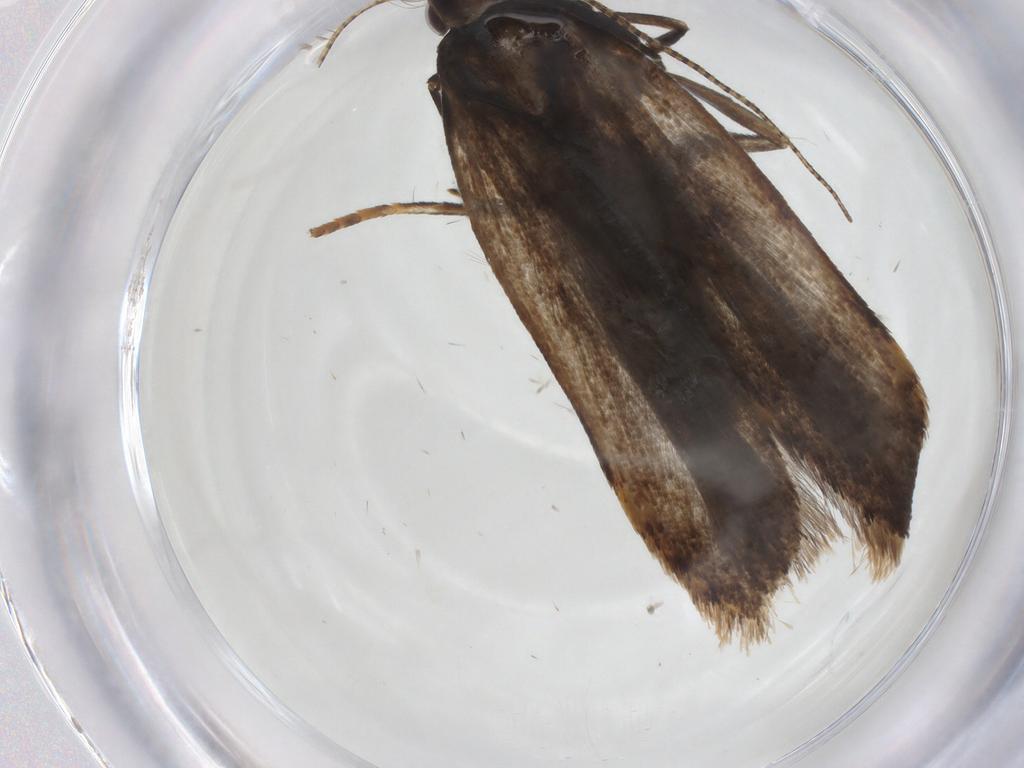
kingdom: Animalia
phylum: Arthropoda
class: Insecta
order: Lepidoptera
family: Gelechiidae
